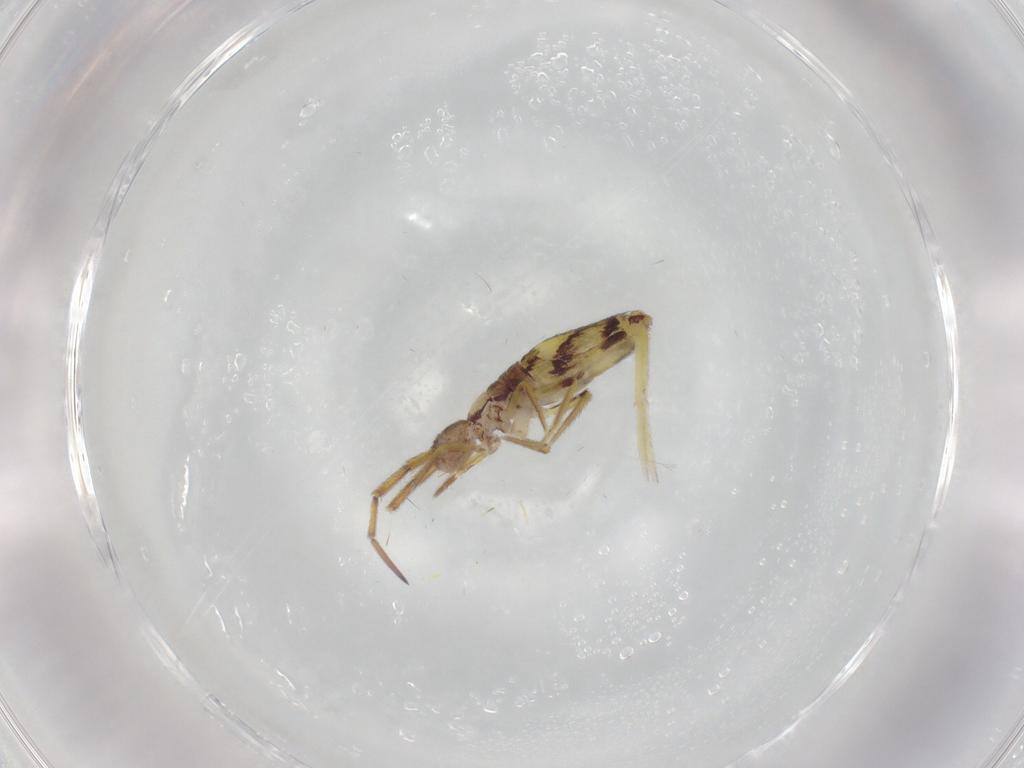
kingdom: Animalia
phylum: Arthropoda
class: Collembola
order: Entomobryomorpha
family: Entomobryidae
